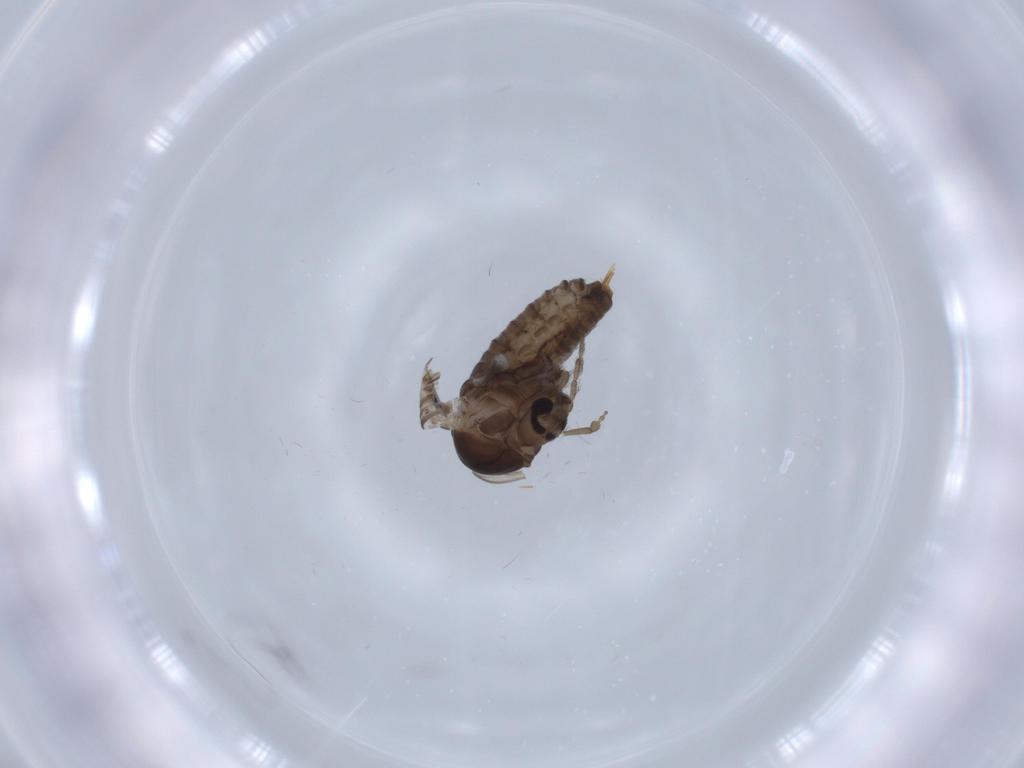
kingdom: Animalia
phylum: Arthropoda
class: Insecta
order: Diptera
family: Psychodidae
